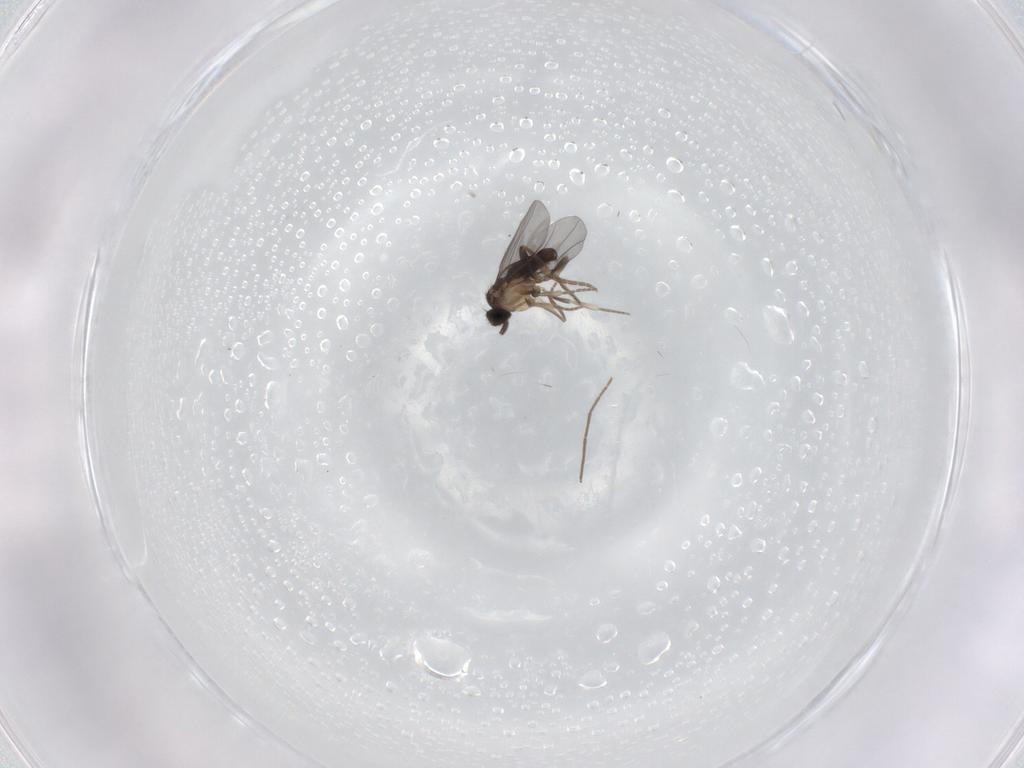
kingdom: Animalia
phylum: Arthropoda
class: Insecta
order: Diptera
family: Chironomidae
